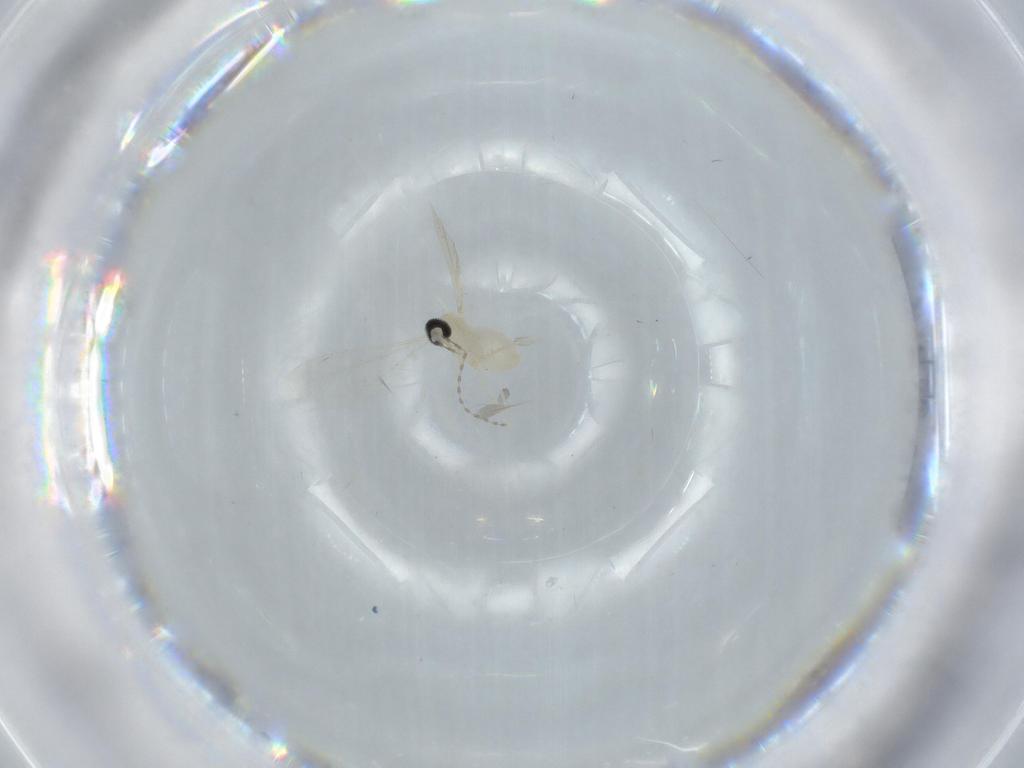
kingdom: Animalia
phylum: Arthropoda
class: Insecta
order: Diptera
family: Cecidomyiidae
